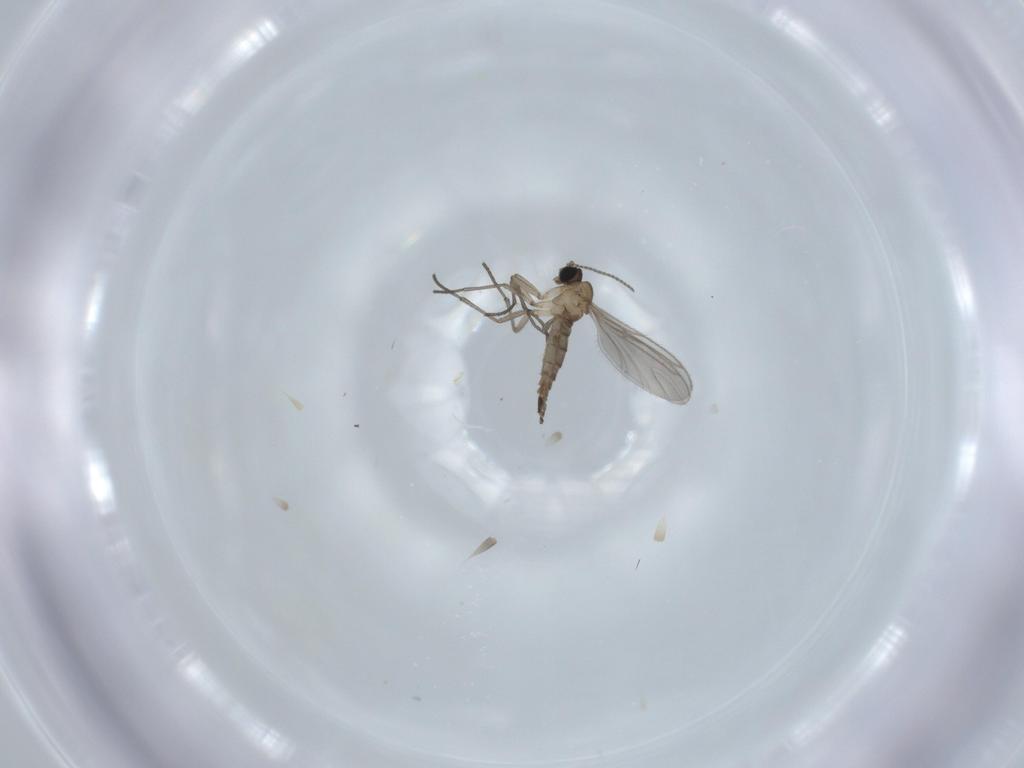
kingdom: Animalia
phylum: Arthropoda
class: Insecta
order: Diptera
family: Sciaridae
